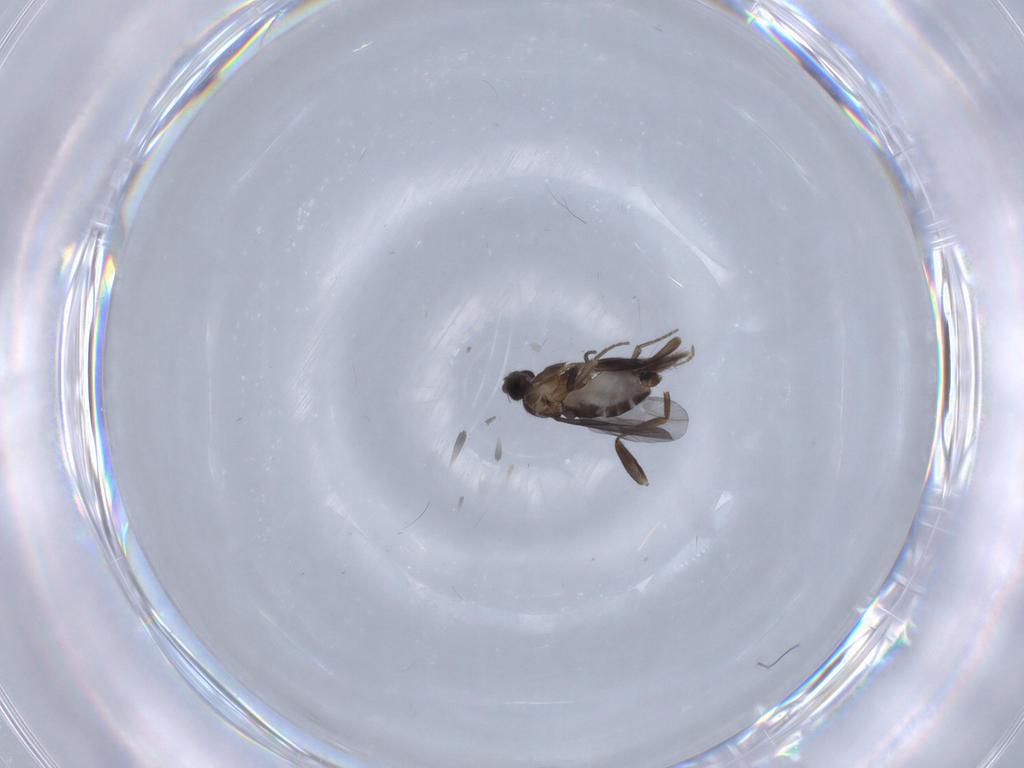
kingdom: Animalia
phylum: Arthropoda
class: Insecta
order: Diptera
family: Phoridae
